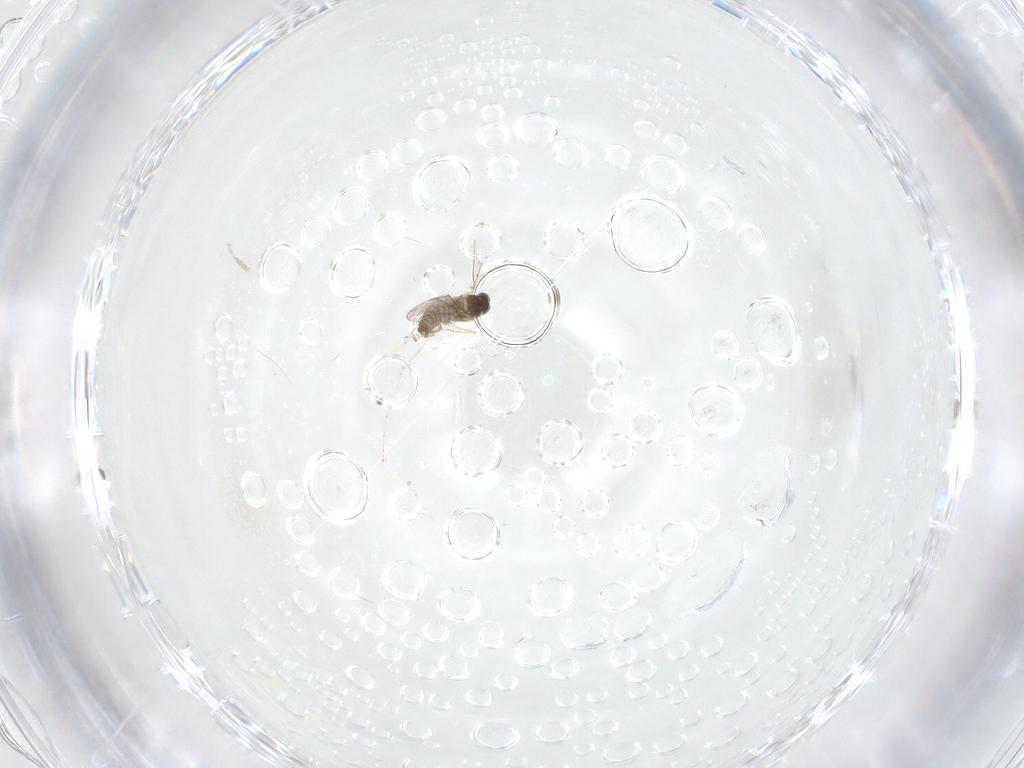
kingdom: Animalia
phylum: Arthropoda
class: Insecta
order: Diptera
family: Cecidomyiidae
